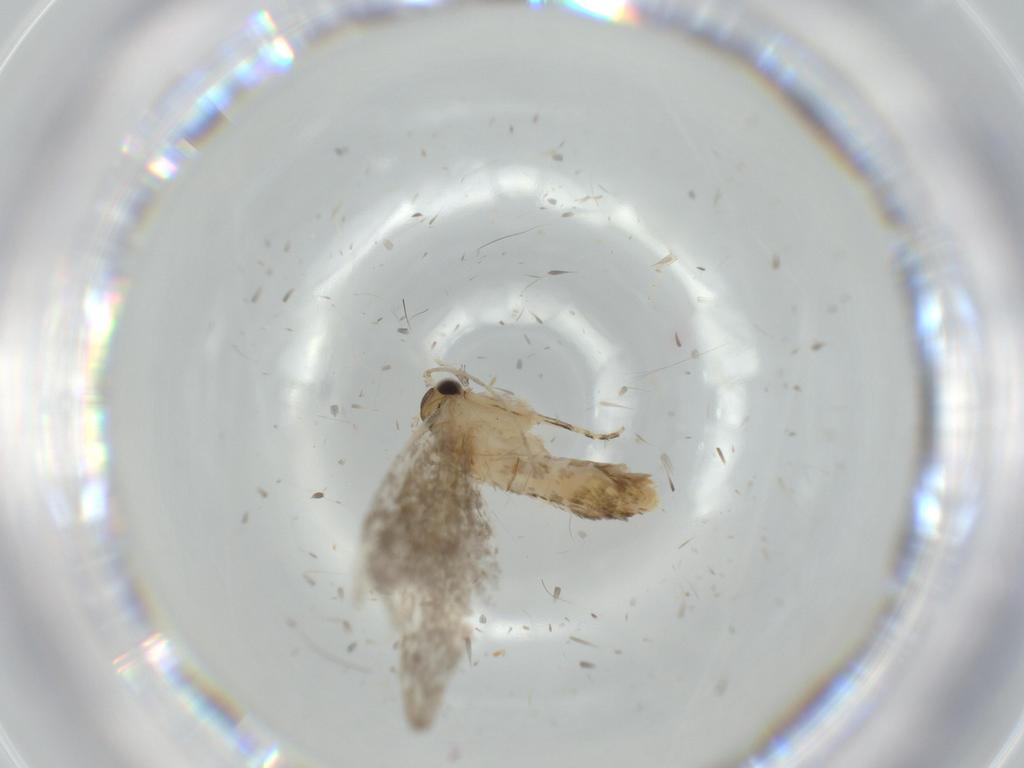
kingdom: Animalia
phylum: Arthropoda
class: Insecta
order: Lepidoptera
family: Tineidae
